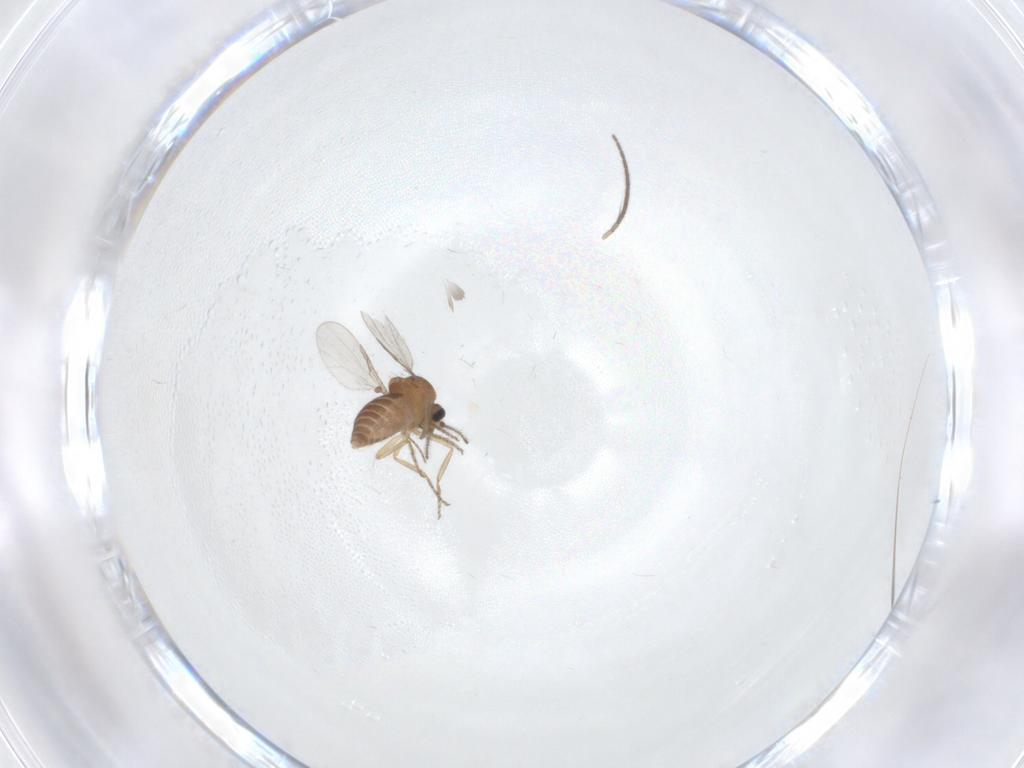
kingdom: Animalia
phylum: Arthropoda
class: Insecta
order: Diptera
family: Ceratopogonidae
